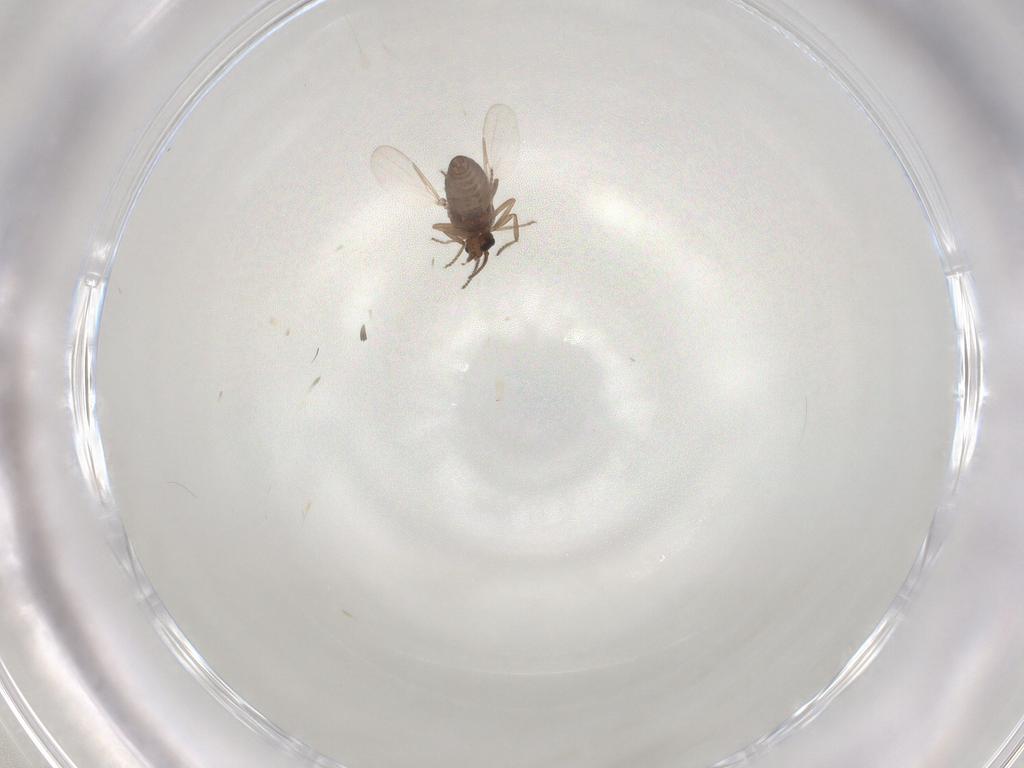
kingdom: Animalia
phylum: Arthropoda
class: Insecta
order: Diptera
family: Ceratopogonidae
